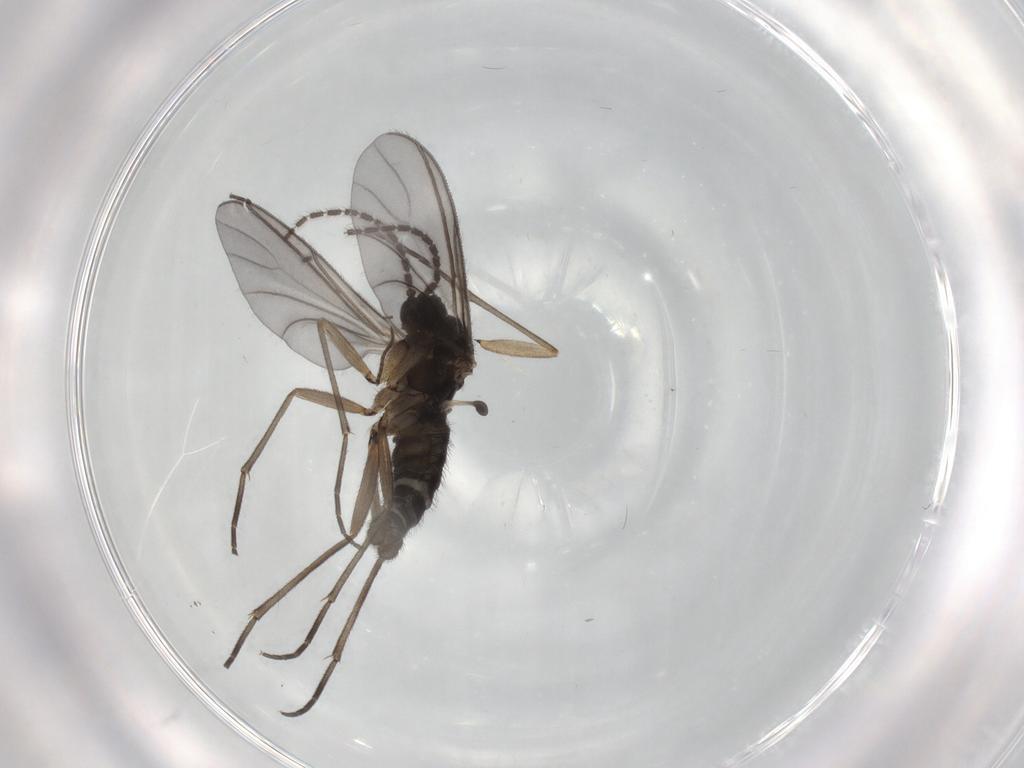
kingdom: Animalia
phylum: Arthropoda
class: Insecta
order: Diptera
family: Sciaridae
